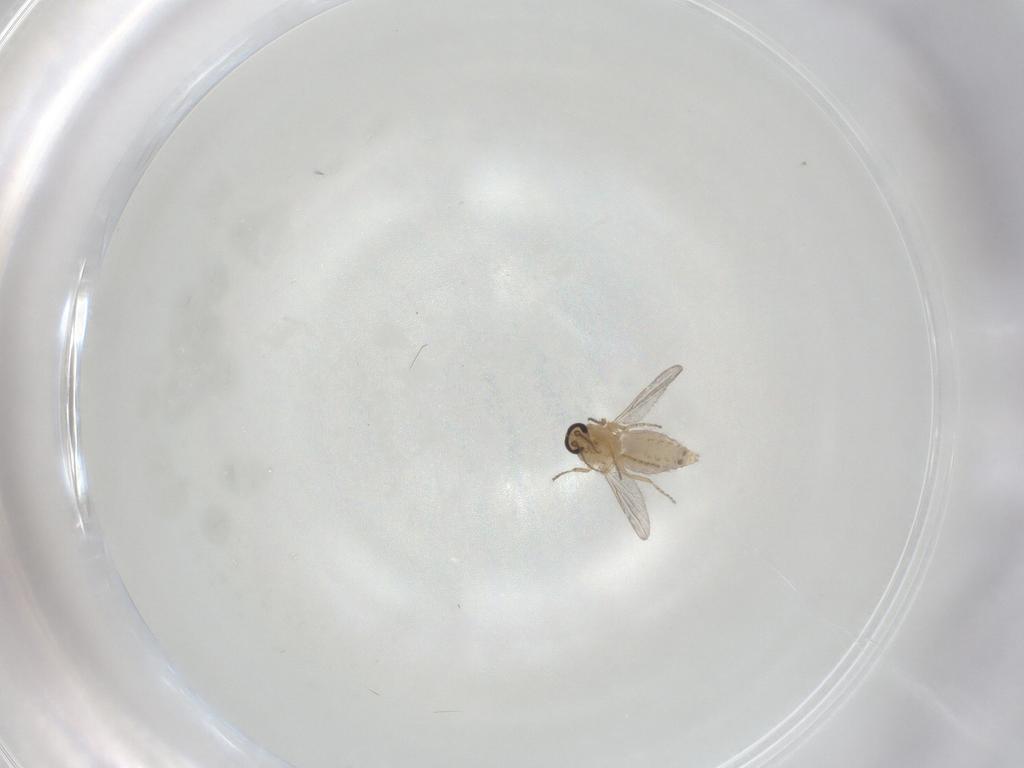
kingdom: Animalia
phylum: Arthropoda
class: Insecta
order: Diptera
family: Ceratopogonidae
